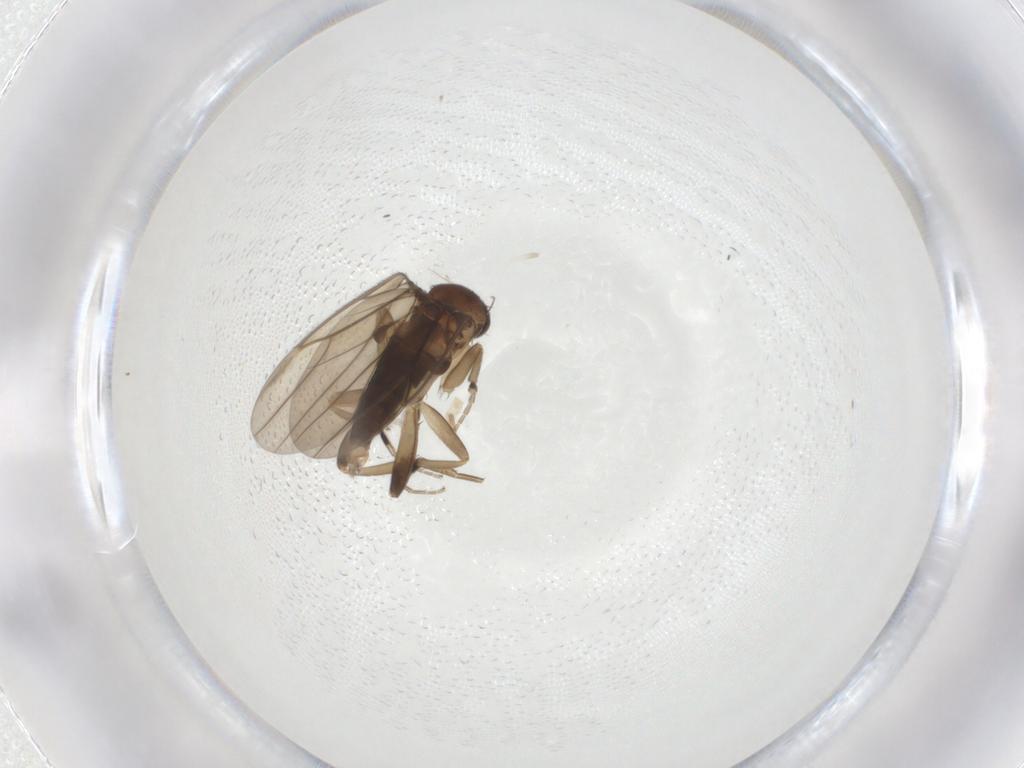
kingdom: Animalia
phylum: Arthropoda
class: Insecta
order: Diptera
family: Phoridae
